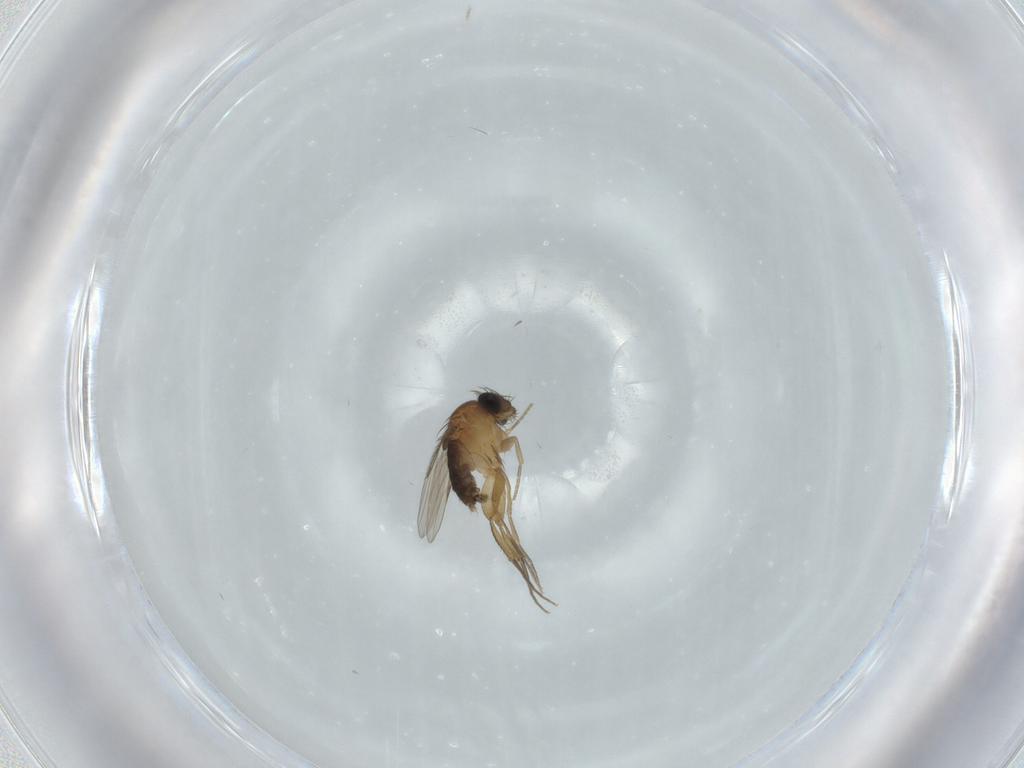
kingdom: Animalia
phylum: Arthropoda
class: Insecta
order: Diptera
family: Phoridae
